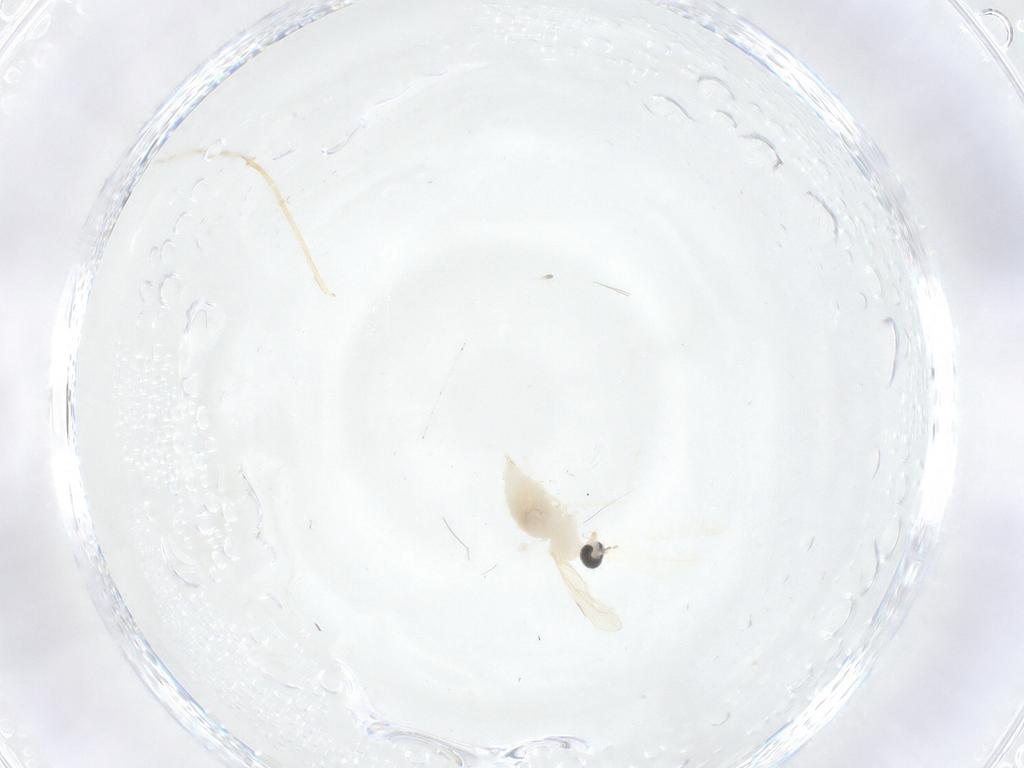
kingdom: Animalia
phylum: Arthropoda
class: Insecta
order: Diptera
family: Cecidomyiidae
